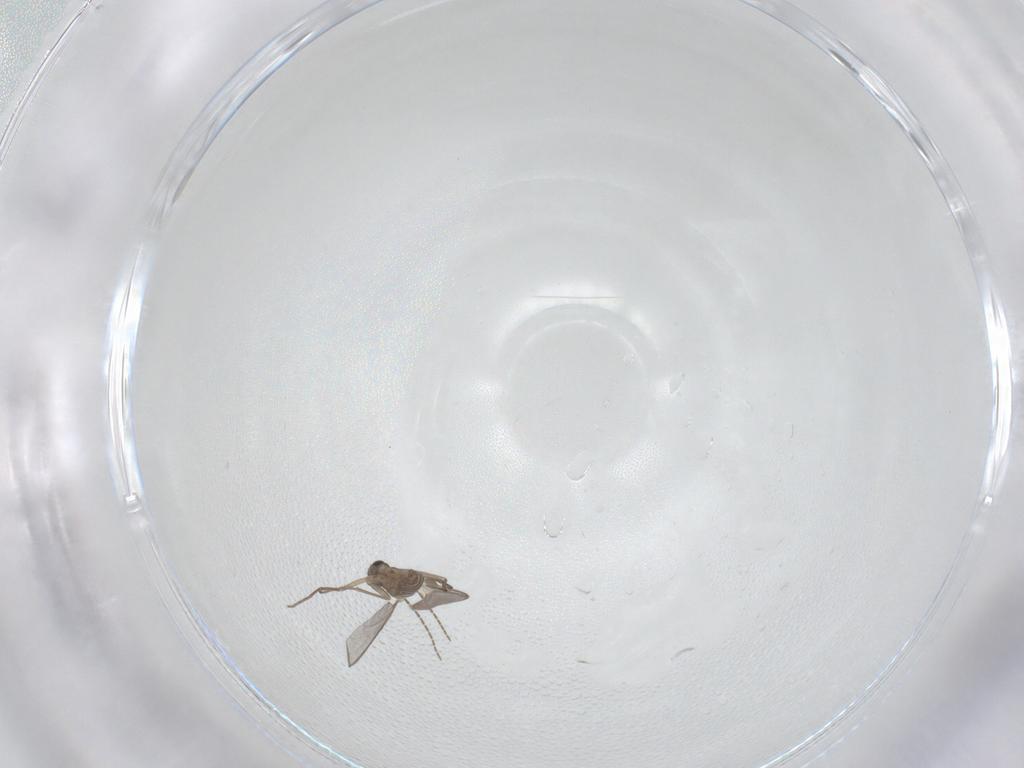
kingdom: Animalia
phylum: Arthropoda
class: Insecta
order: Diptera
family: Sciaridae
